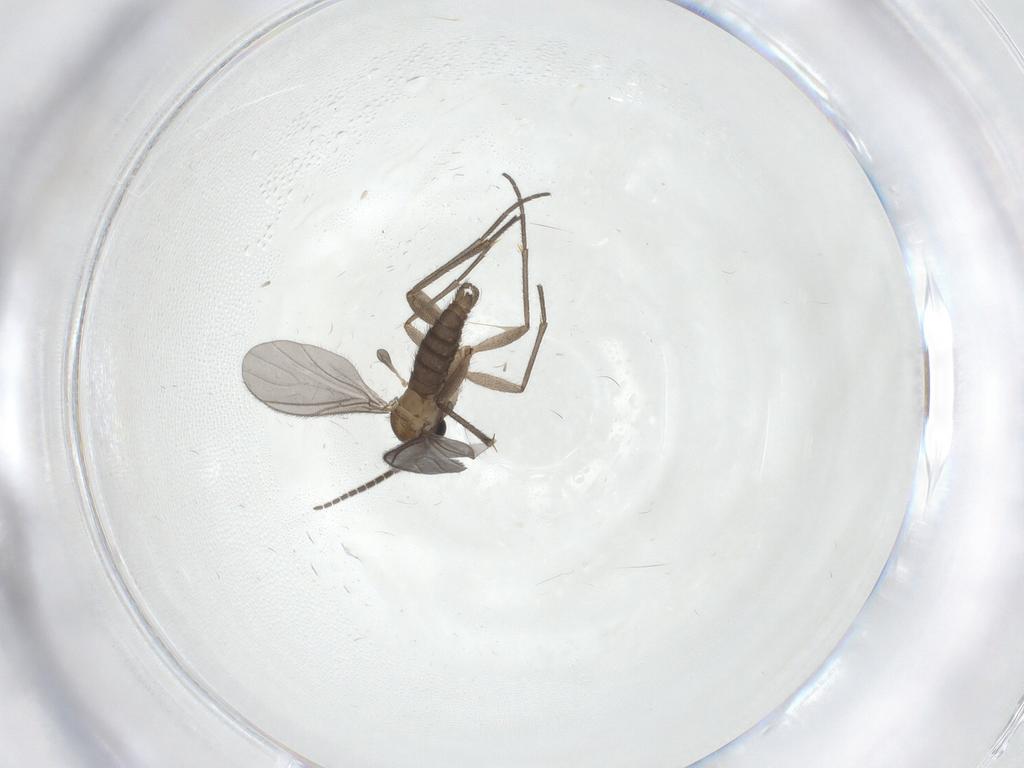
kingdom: Animalia
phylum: Arthropoda
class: Insecta
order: Diptera
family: Sciaridae
